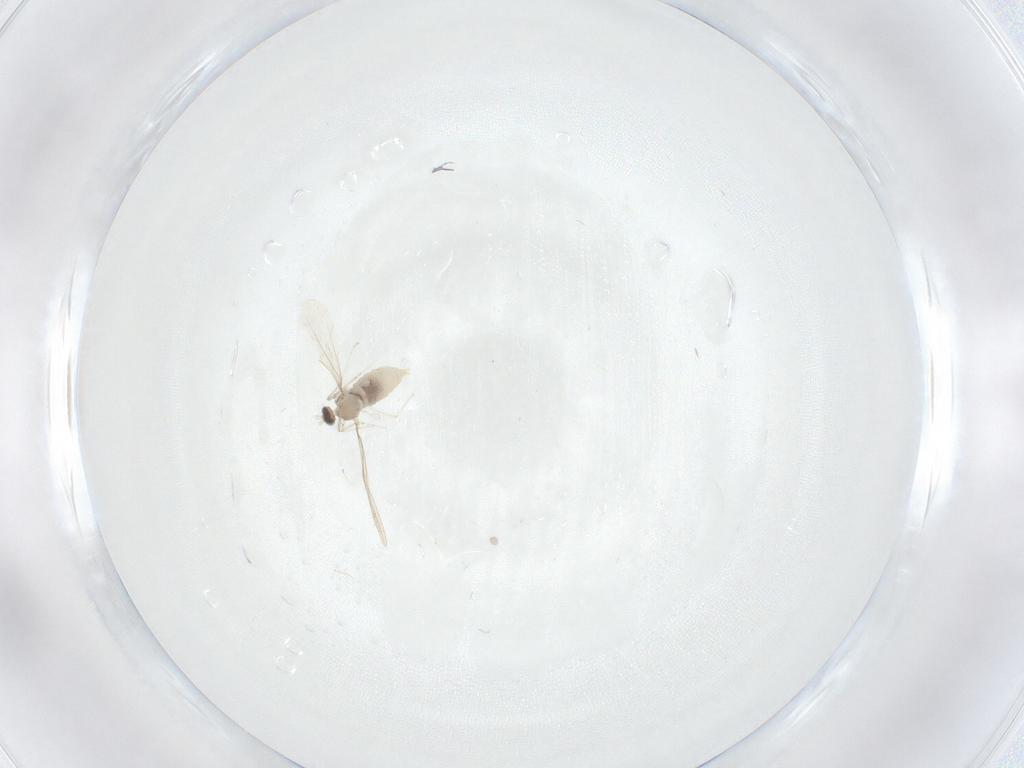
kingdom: Animalia
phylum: Arthropoda
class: Insecta
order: Diptera
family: Cecidomyiidae
